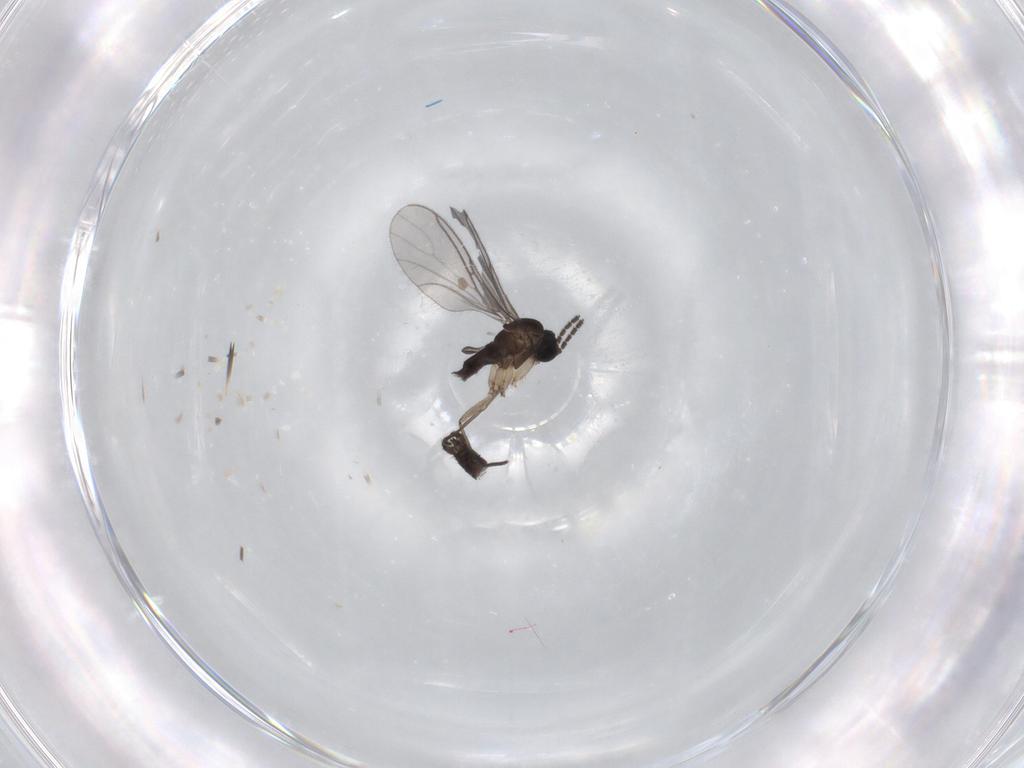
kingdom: Animalia
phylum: Arthropoda
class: Insecta
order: Diptera
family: Sciaridae
